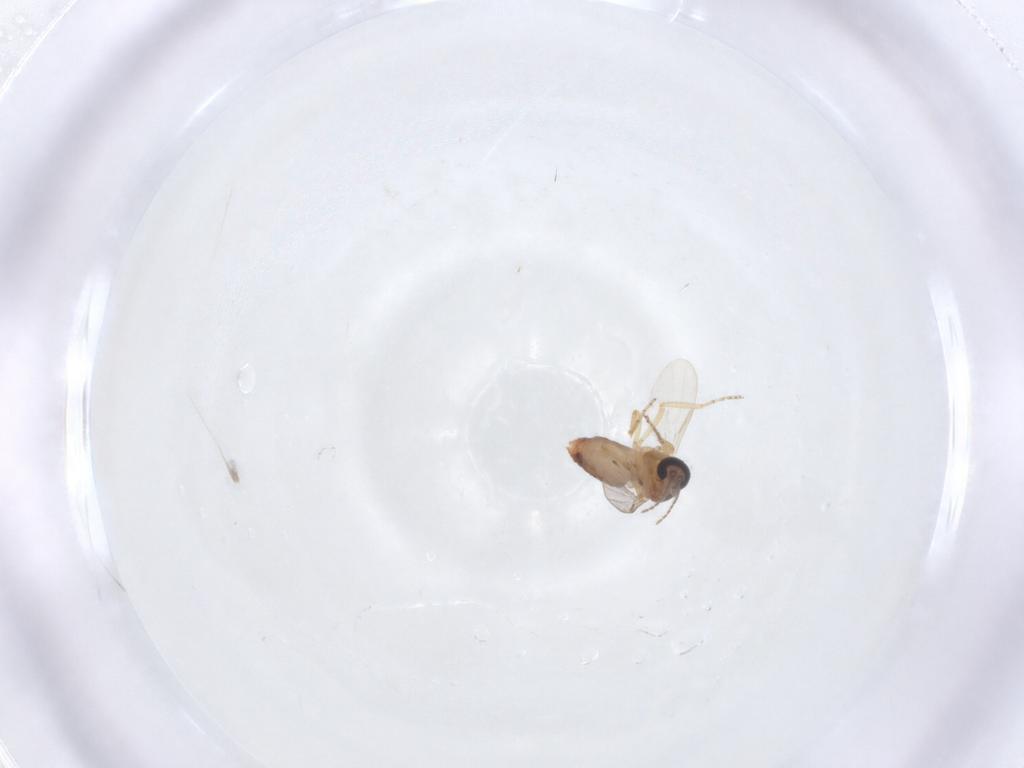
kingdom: Animalia
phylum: Arthropoda
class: Insecta
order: Diptera
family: Ceratopogonidae
